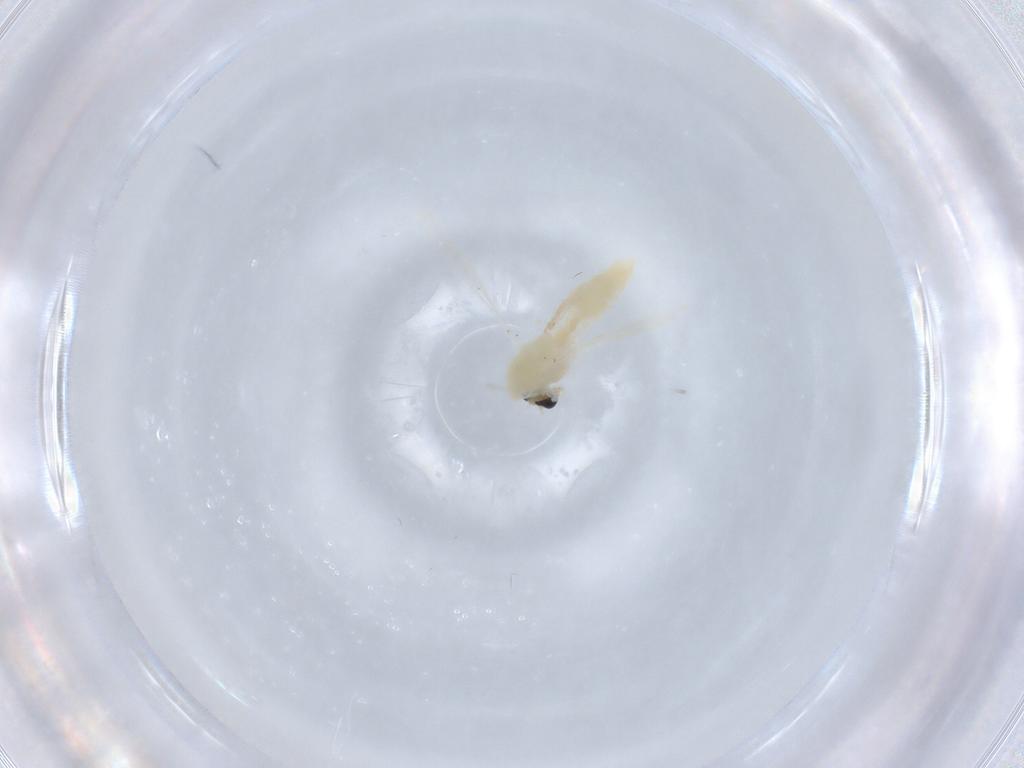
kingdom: Animalia
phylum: Arthropoda
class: Insecta
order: Diptera
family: Chironomidae
